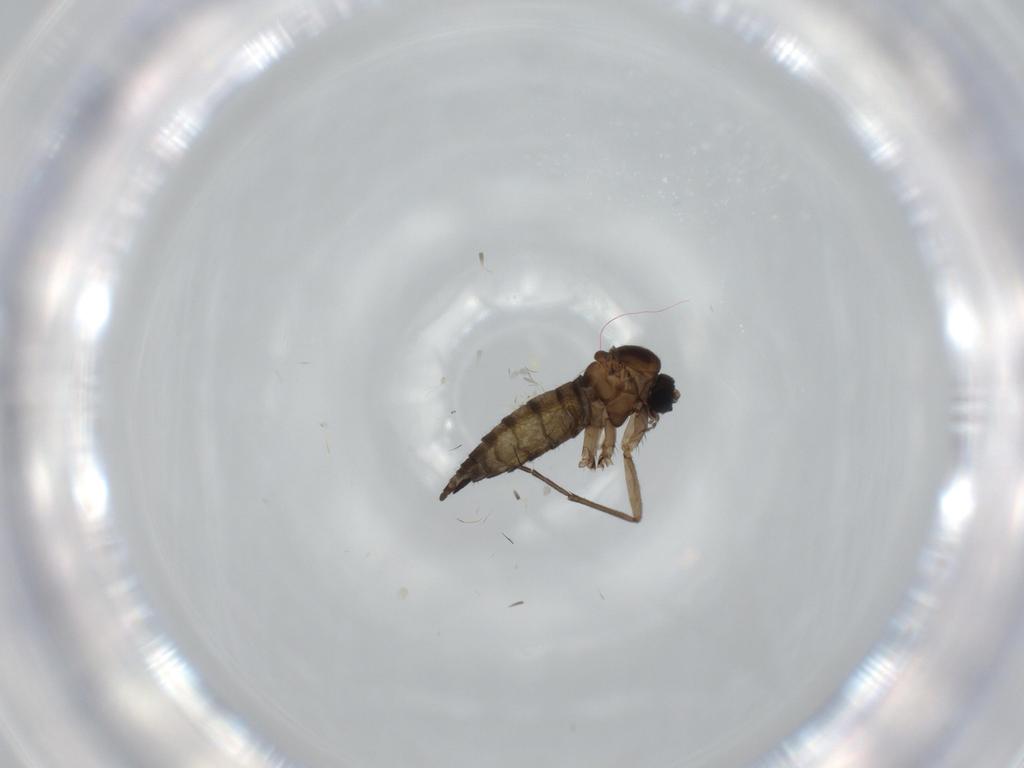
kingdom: Animalia
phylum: Arthropoda
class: Insecta
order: Diptera
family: Sciaridae
